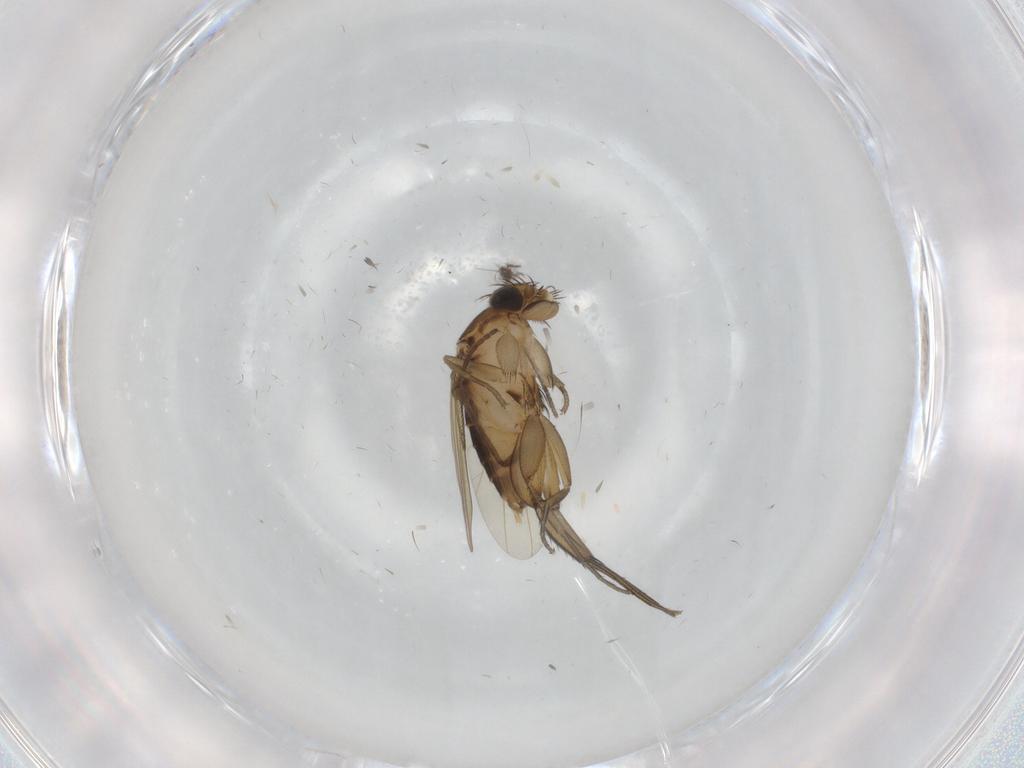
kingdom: Animalia
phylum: Arthropoda
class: Insecta
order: Diptera
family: Phoridae
